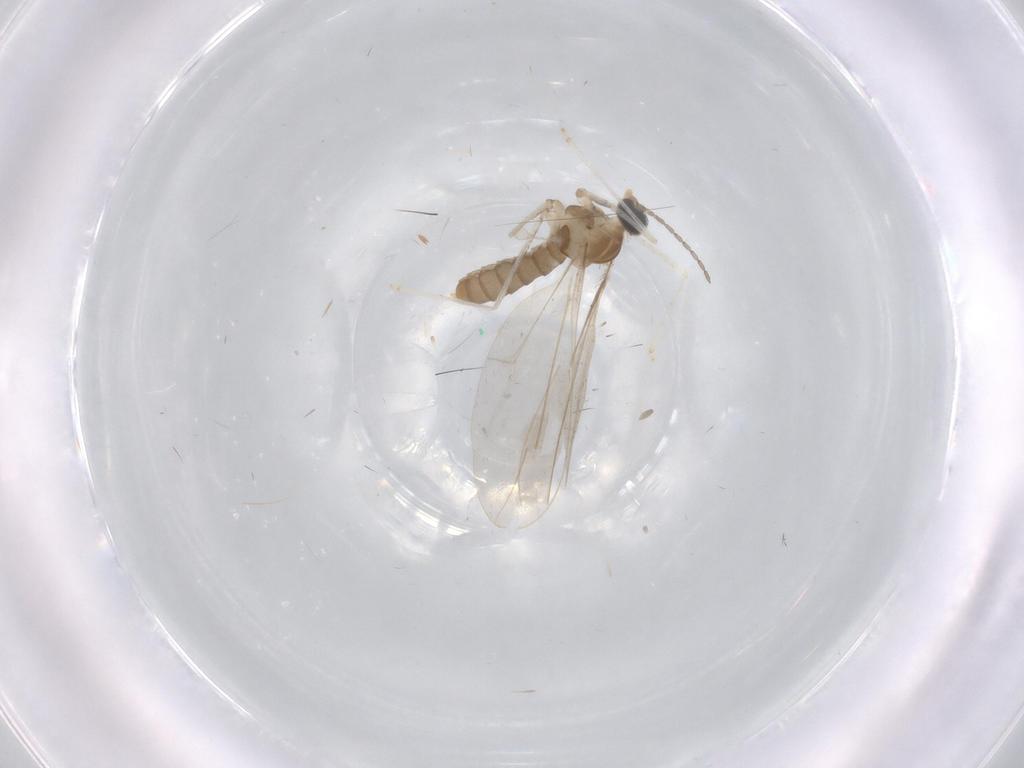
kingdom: Animalia
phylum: Arthropoda
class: Insecta
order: Diptera
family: Cecidomyiidae
